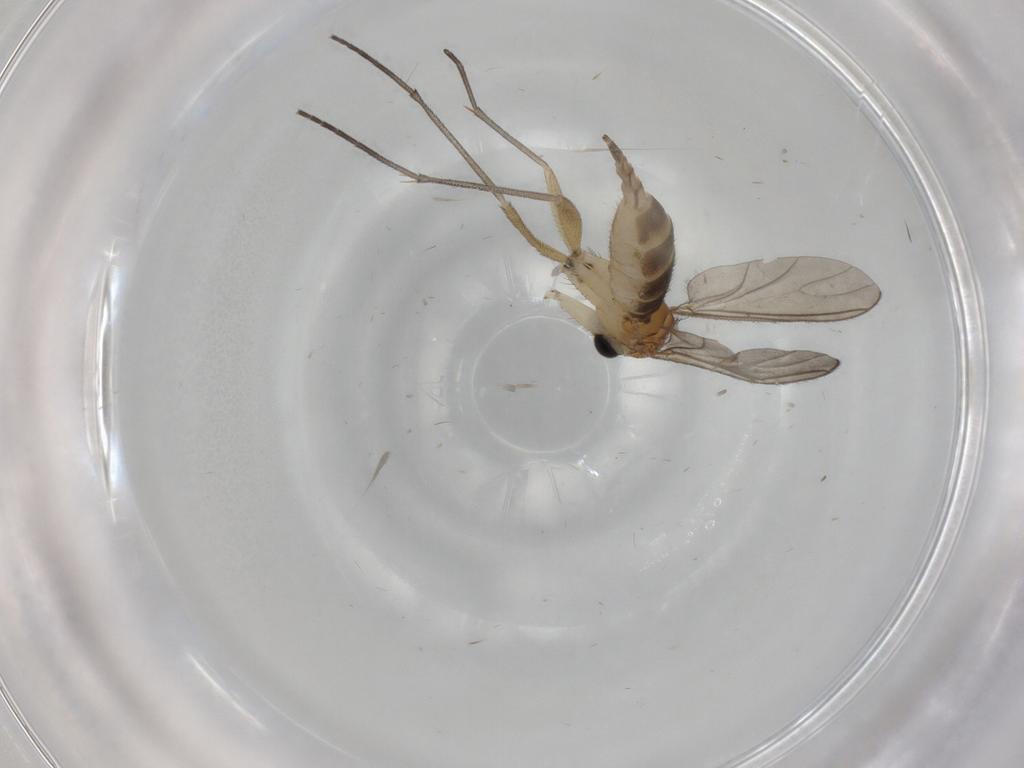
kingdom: Animalia
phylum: Arthropoda
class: Insecta
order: Diptera
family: Sciaridae
